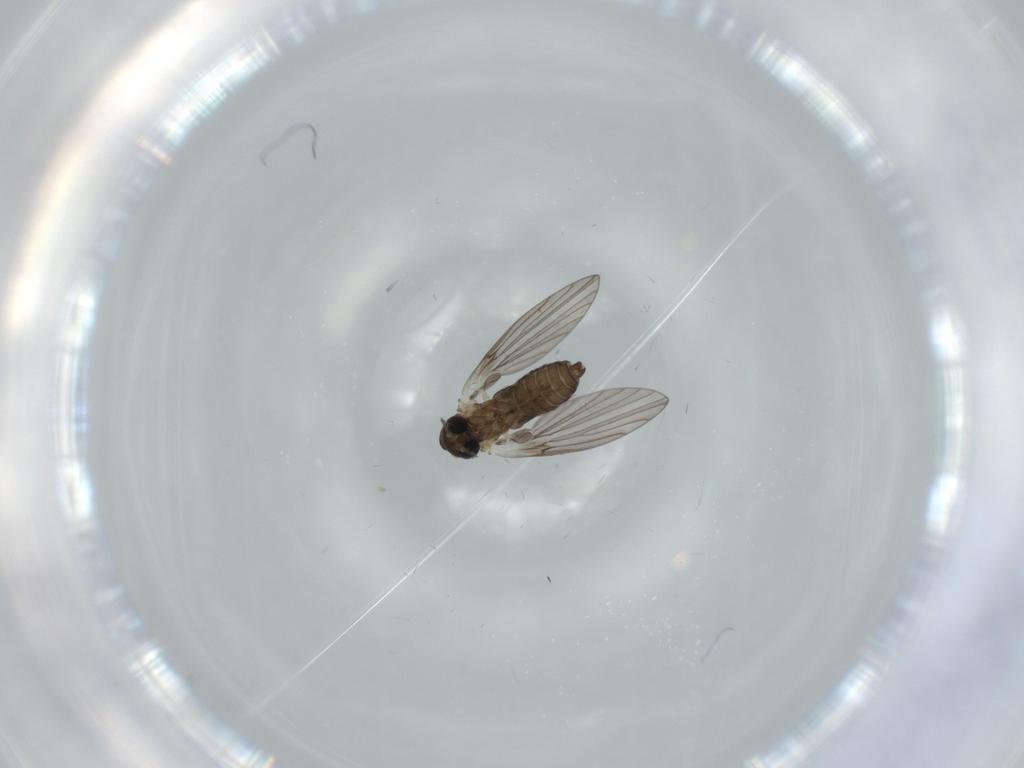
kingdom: Animalia
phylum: Arthropoda
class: Insecta
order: Diptera
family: Psychodidae
